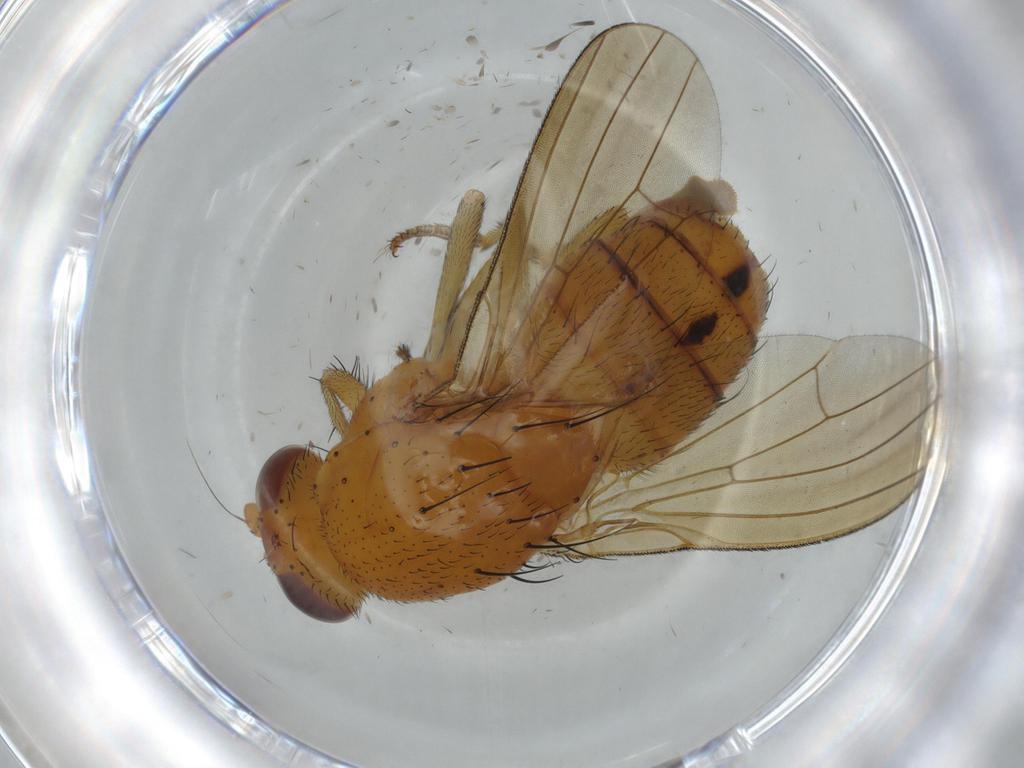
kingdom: Animalia
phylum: Arthropoda
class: Insecta
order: Diptera
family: Lauxaniidae
